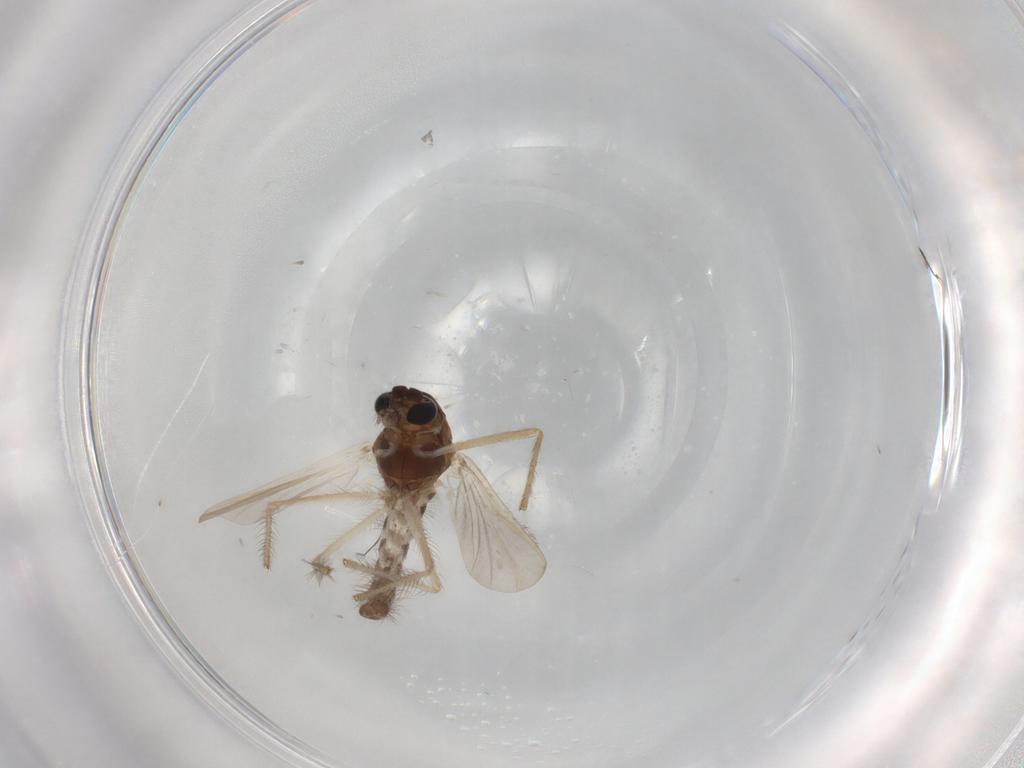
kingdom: Animalia
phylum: Arthropoda
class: Insecta
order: Diptera
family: Chironomidae
